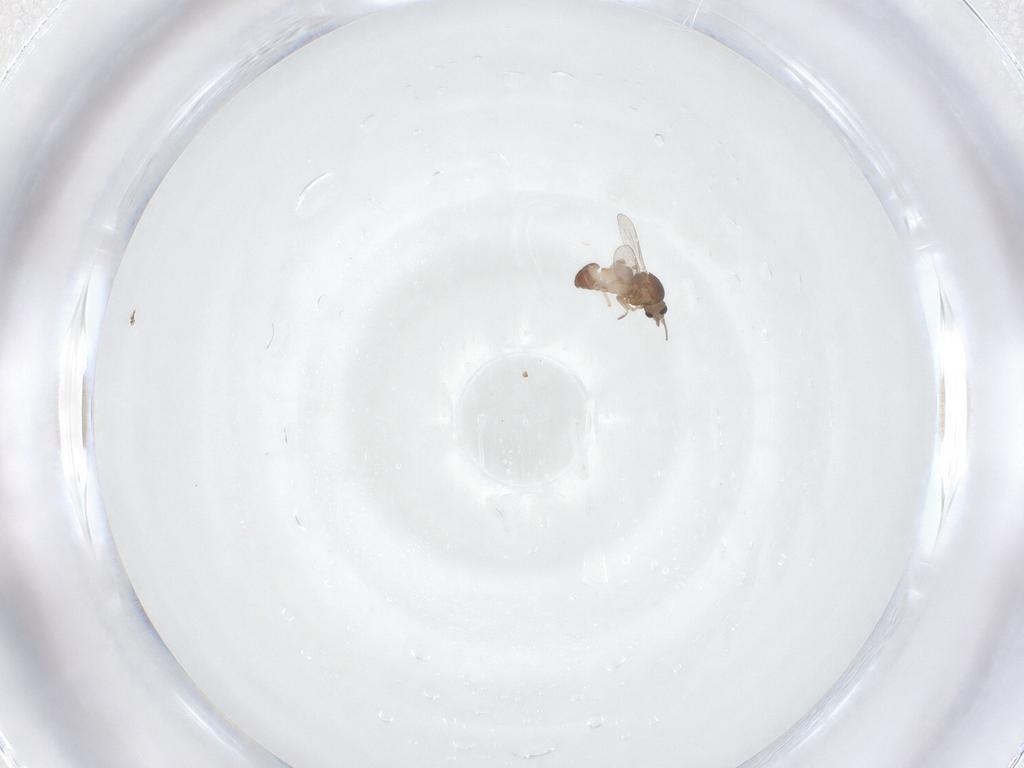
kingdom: Animalia
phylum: Arthropoda
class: Insecta
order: Diptera
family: Ceratopogonidae
